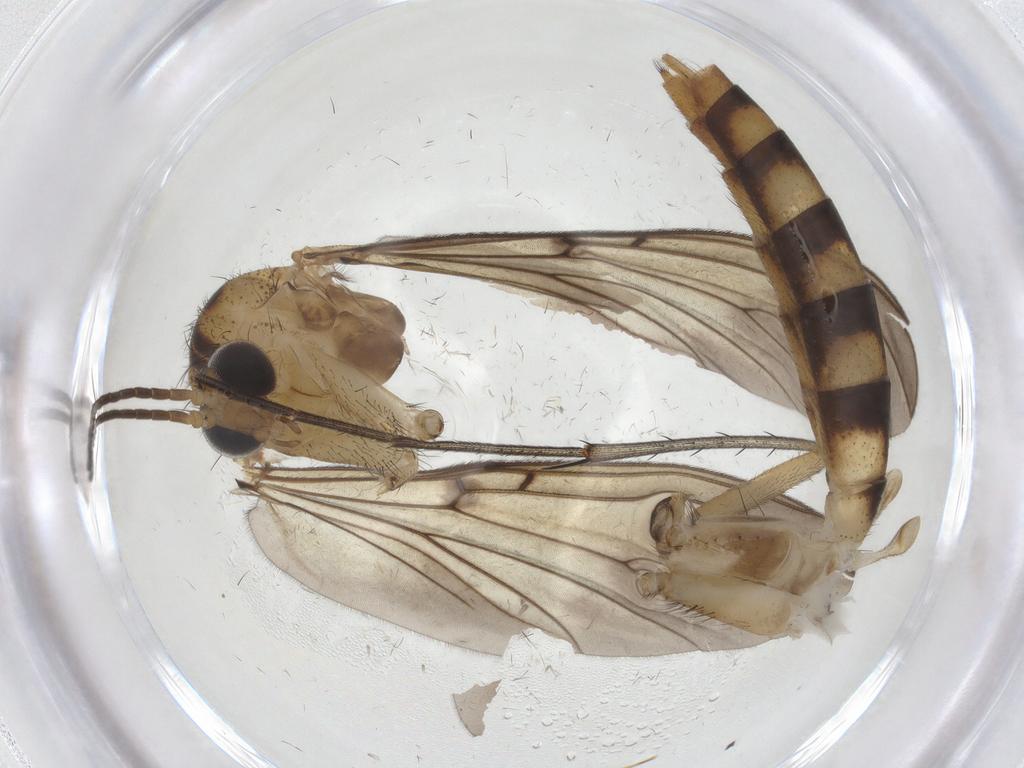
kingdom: Animalia
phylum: Arthropoda
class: Insecta
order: Diptera
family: Mycetophilidae
